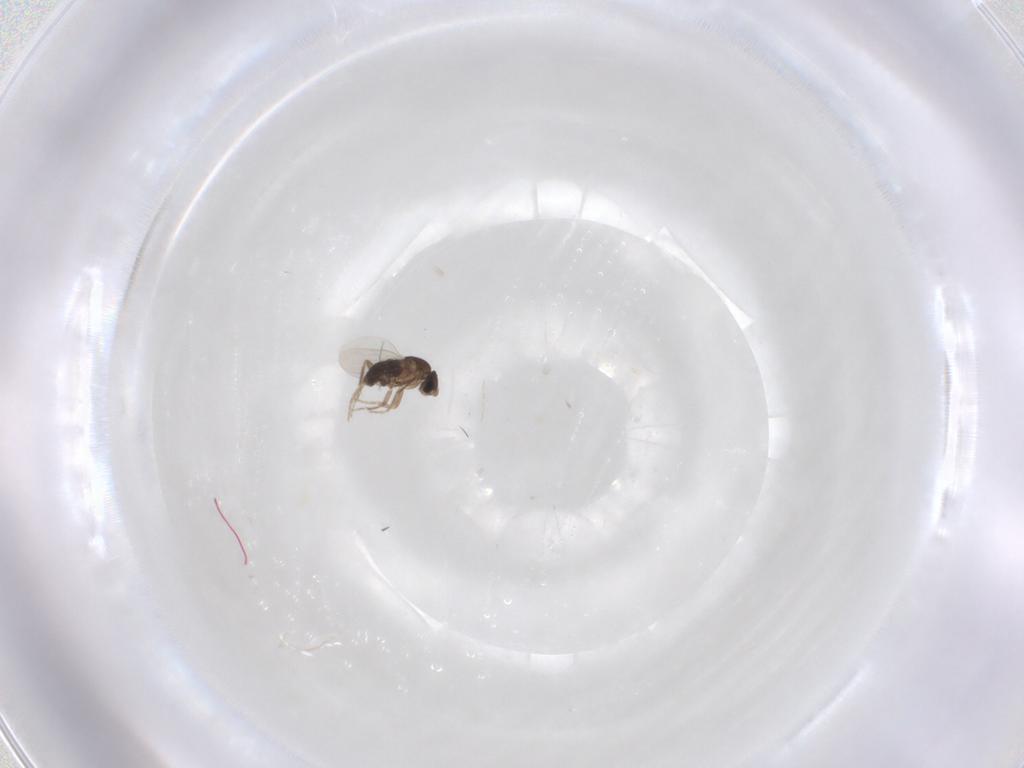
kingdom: Animalia
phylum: Arthropoda
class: Insecta
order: Diptera
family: Phoridae
